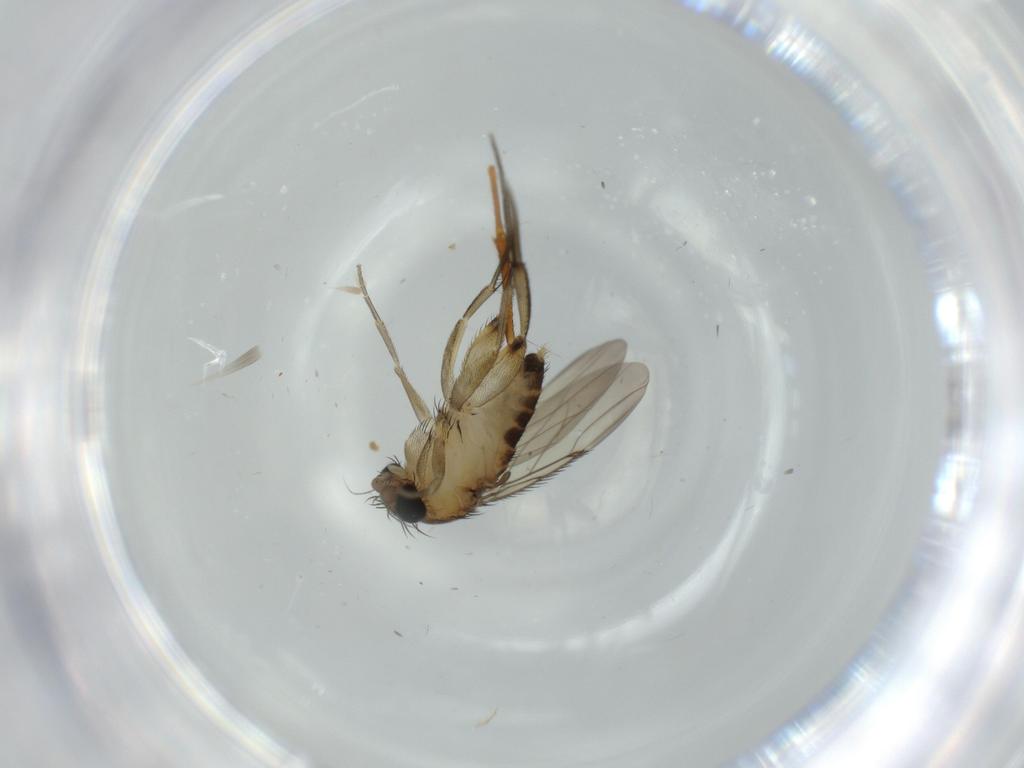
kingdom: Animalia
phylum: Arthropoda
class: Insecta
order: Diptera
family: Phoridae
